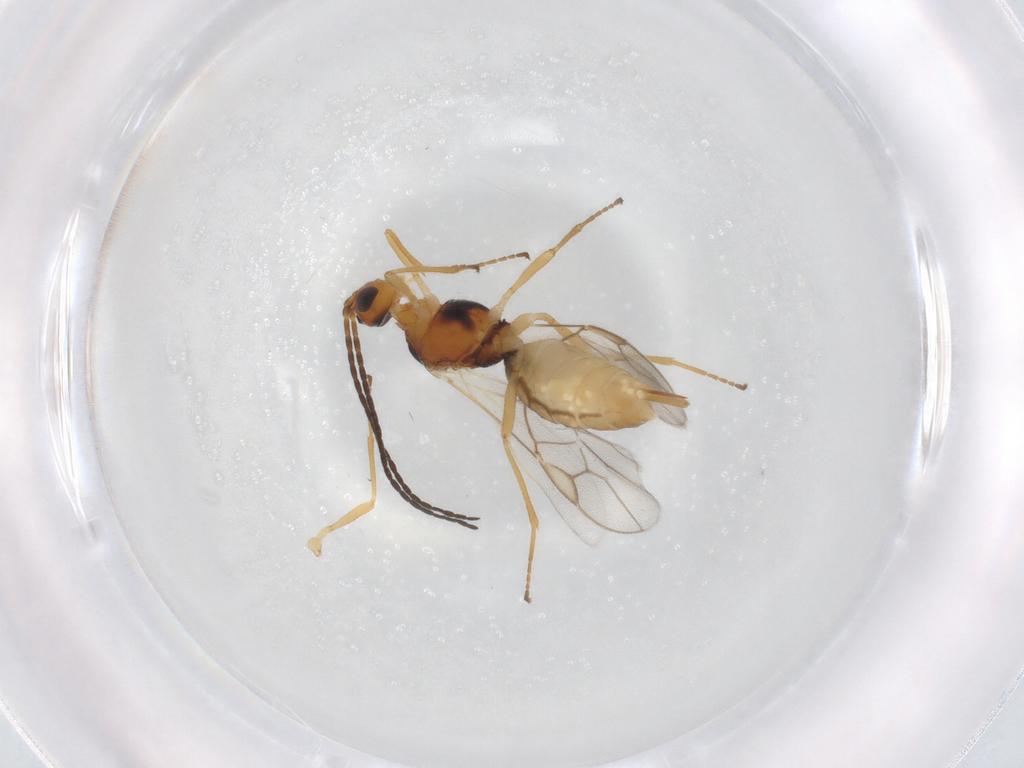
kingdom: Animalia
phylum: Arthropoda
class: Insecta
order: Hymenoptera
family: Braconidae
